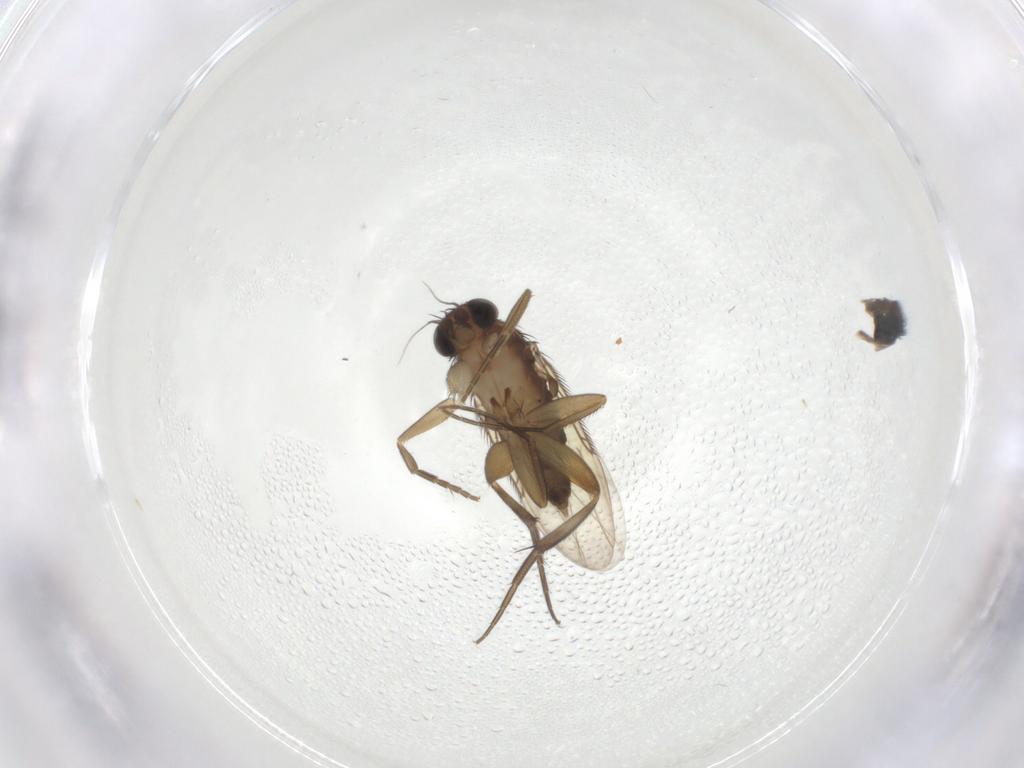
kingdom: Animalia
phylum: Arthropoda
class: Insecta
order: Diptera
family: Phoridae
